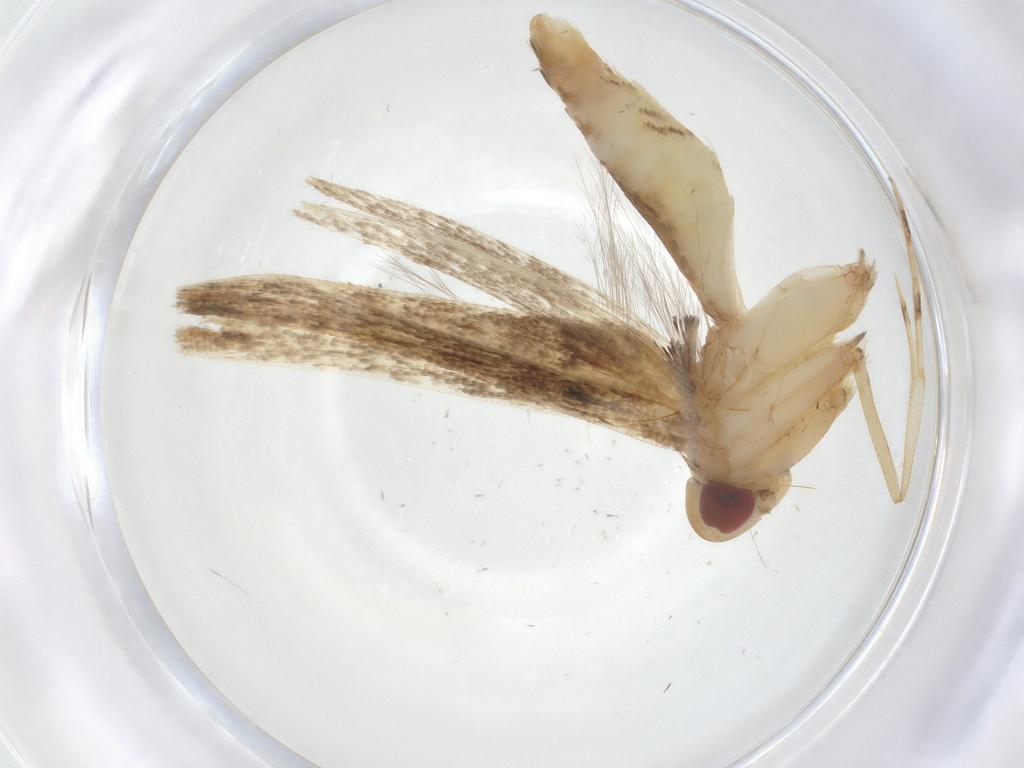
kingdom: Animalia
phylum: Arthropoda
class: Insecta
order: Lepidoptera
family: Cosmopterigidae
